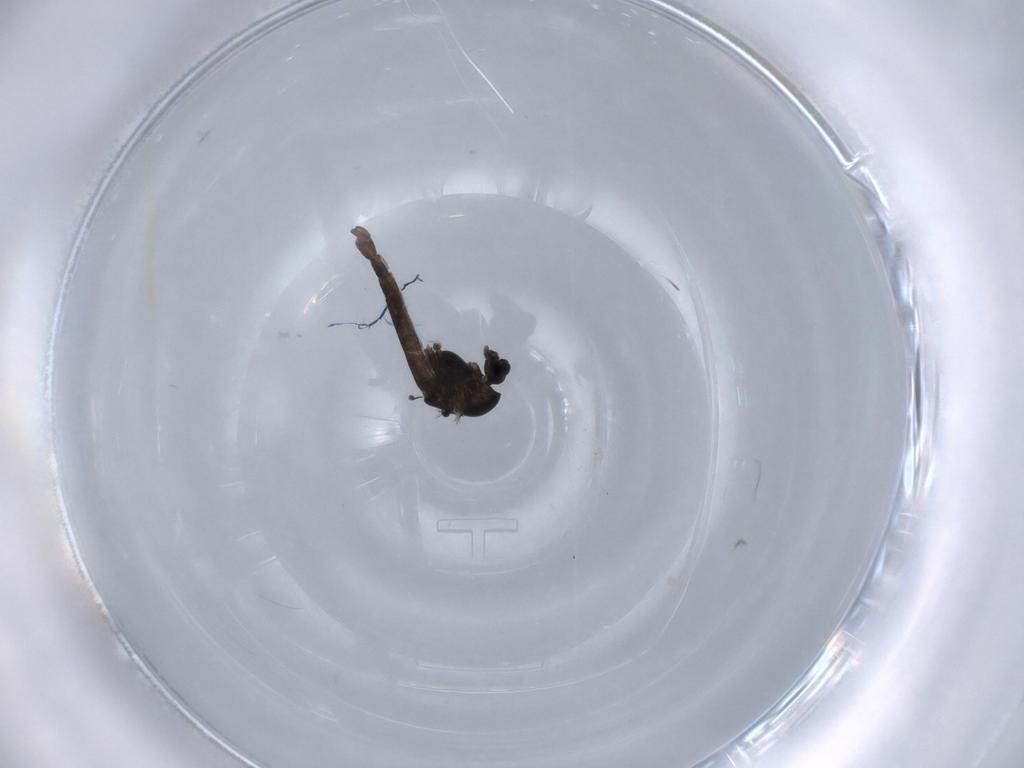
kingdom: Animalia
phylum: Arthropoda
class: Insecta
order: Diptera
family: Chironomidae
